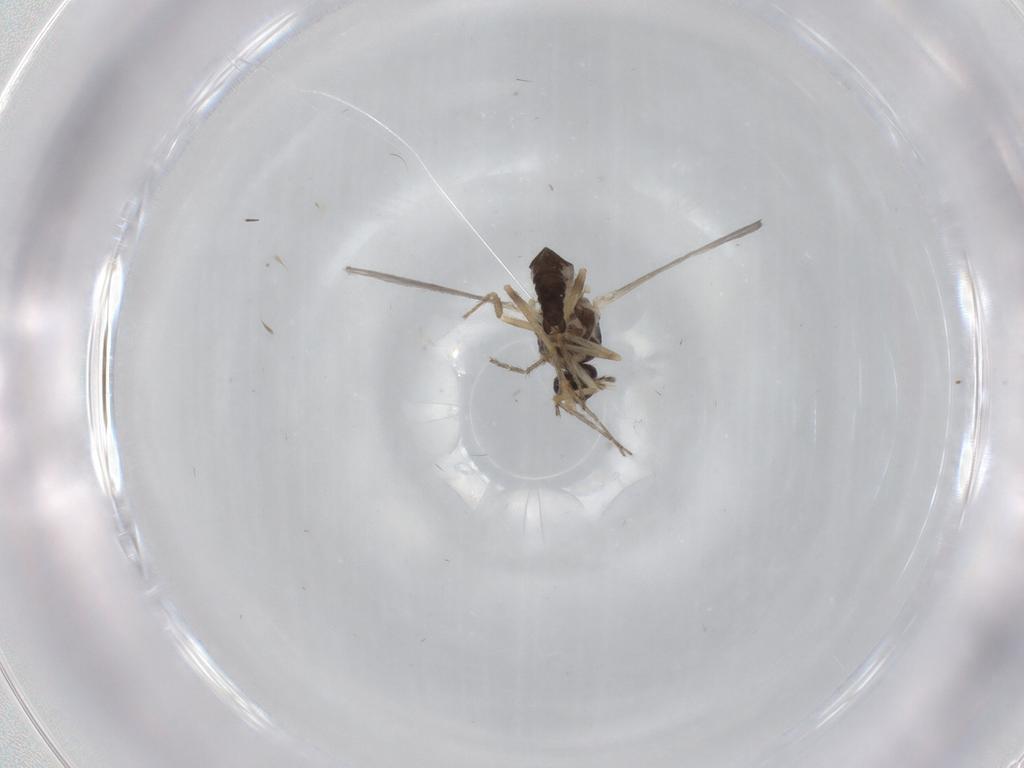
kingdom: Animalia
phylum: Arthropoda
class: Insecta
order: Diptera
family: Ceratopogonidae
